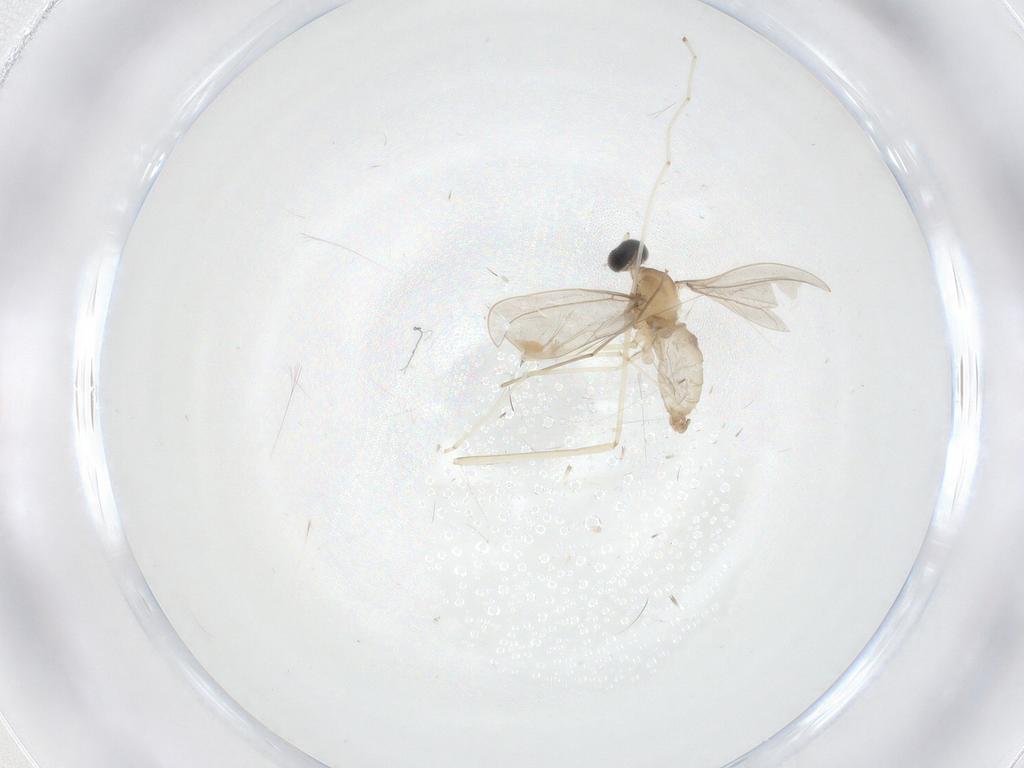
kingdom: Animalia
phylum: Arthropoda
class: Insecta
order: Diptera
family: Cecidomyiidae
